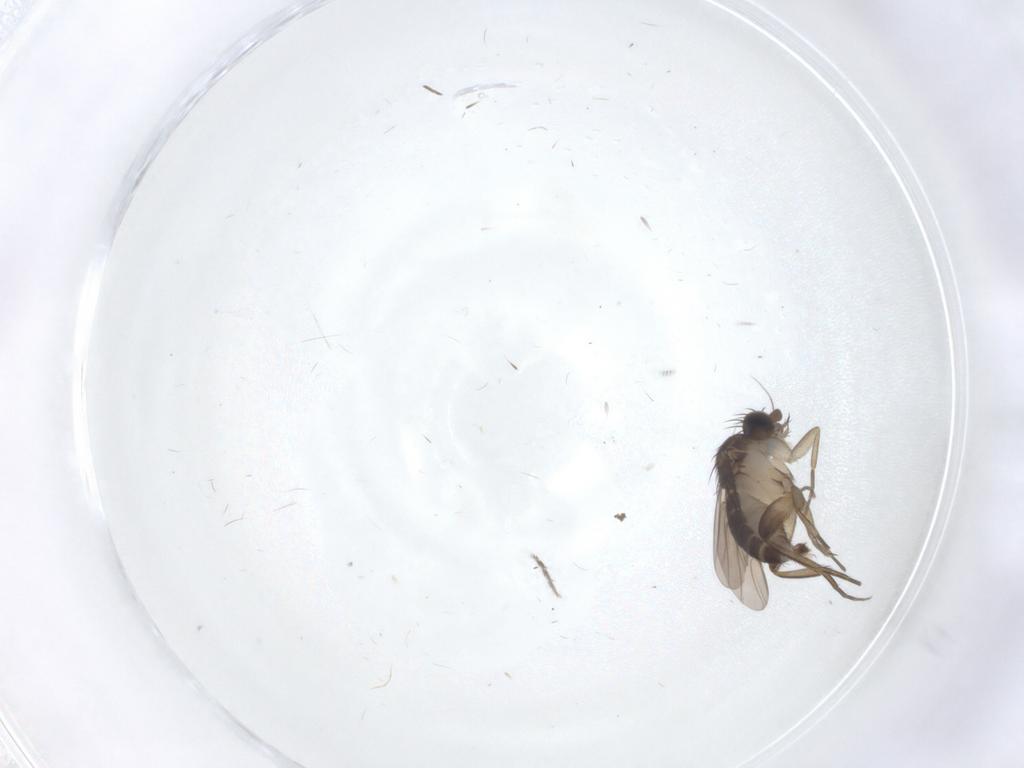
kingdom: Animalia
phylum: Arthropoda
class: Insecta
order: Diptera
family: Phoridae
